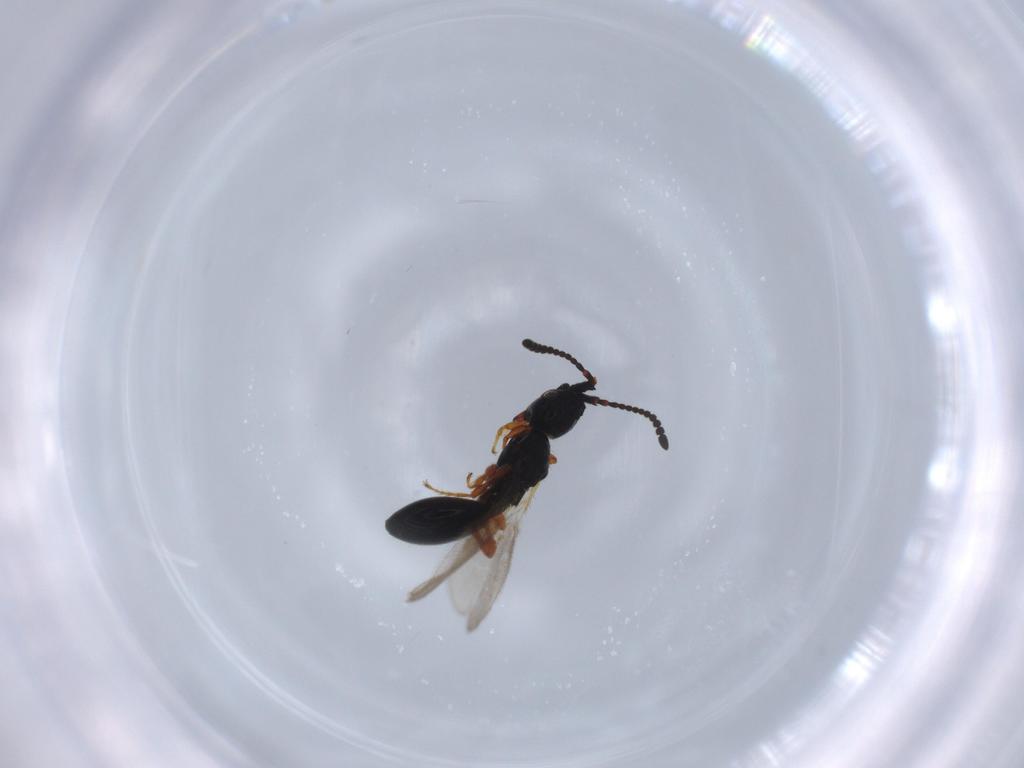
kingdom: Animalia
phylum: Arthropoda
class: Insecta
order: Hymenoptera
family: Diapriidae
